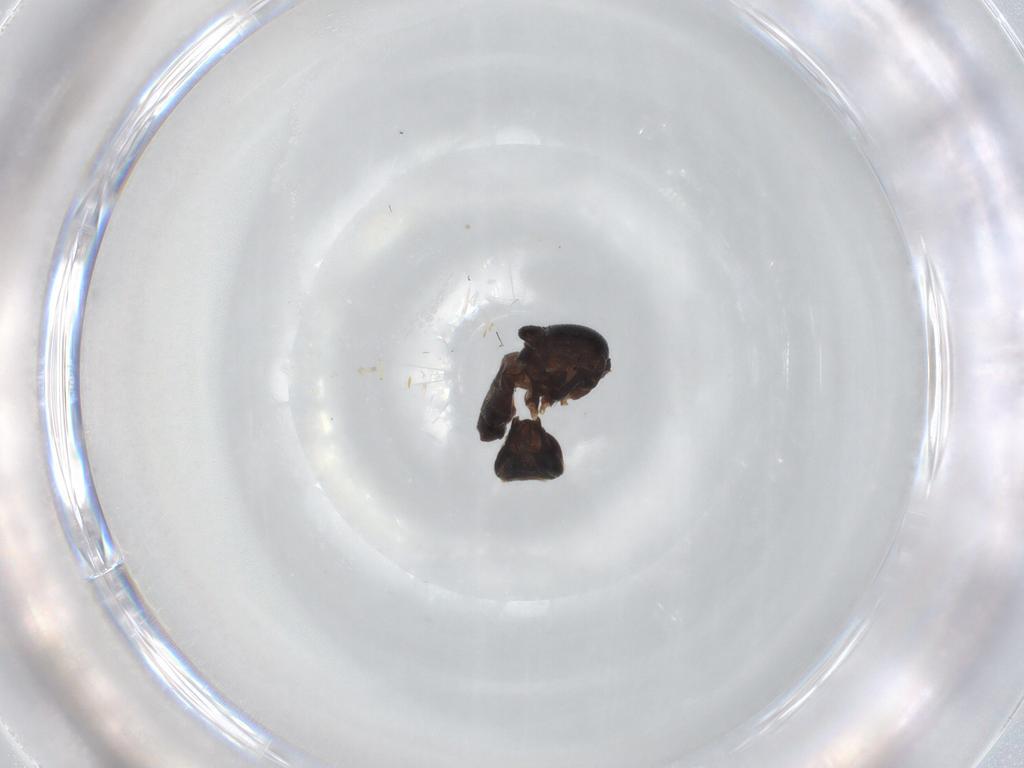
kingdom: Animalia
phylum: Arthropoda
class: Insecta
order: Diptera
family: Chloropidae
